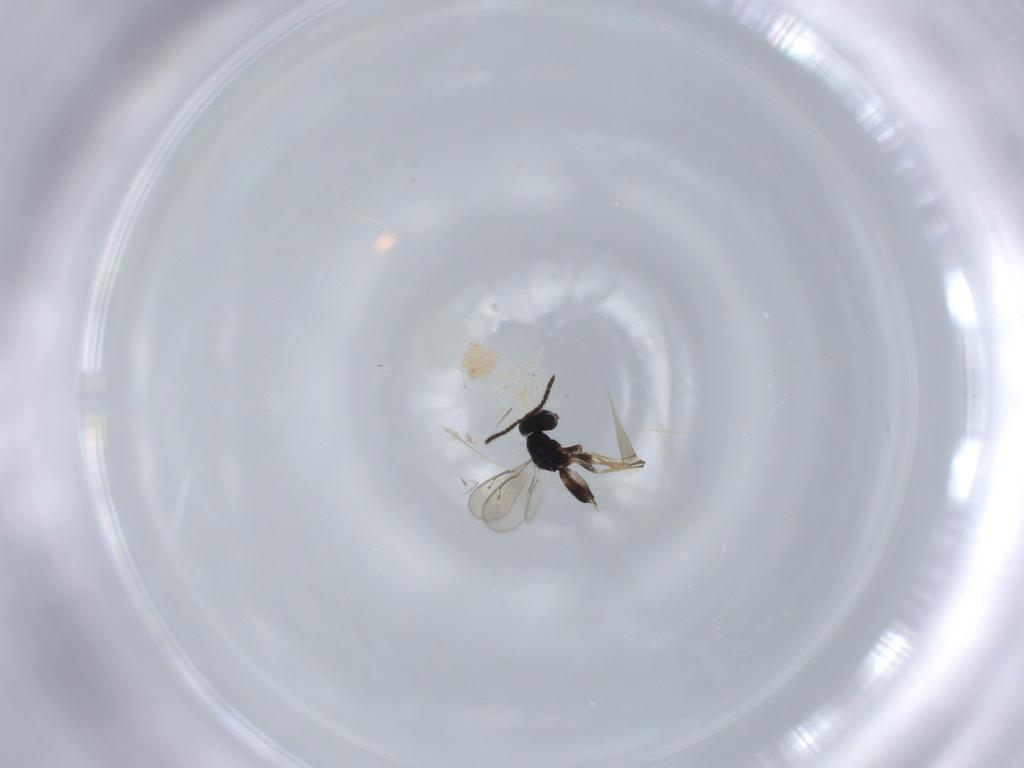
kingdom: Animalia
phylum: Arthropoda
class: Insecta
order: Hymenoptera
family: Pteromalidae
